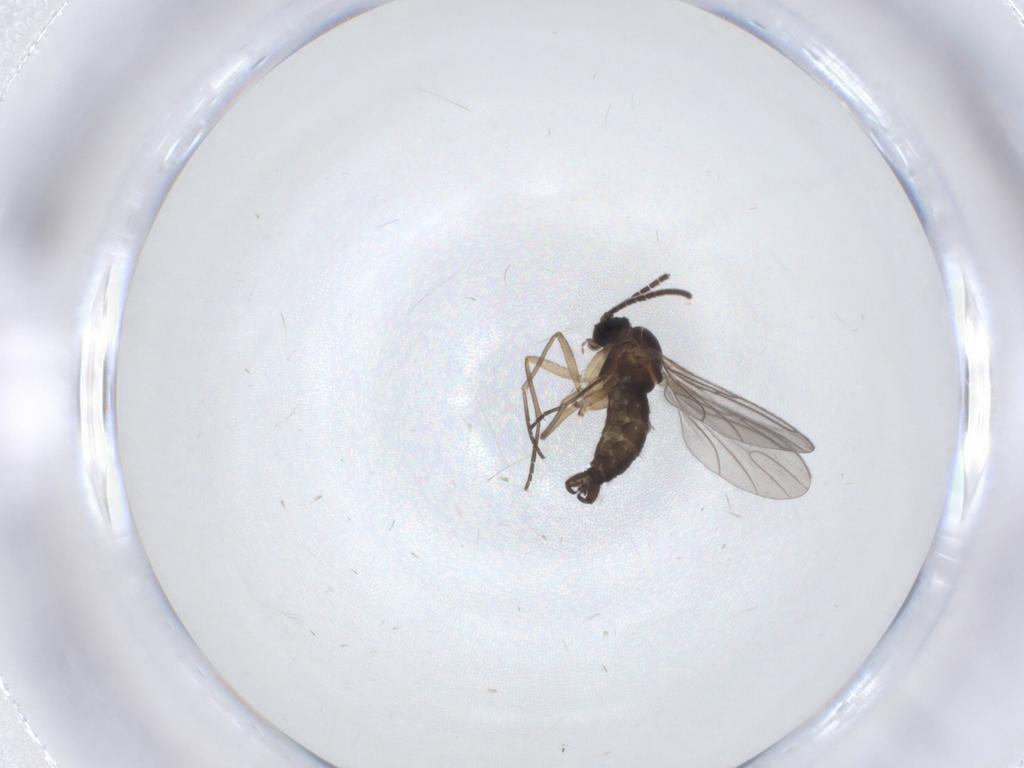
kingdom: Animalia
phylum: Arthropoda
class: Insecta
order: Diptera
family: Sciaridae
